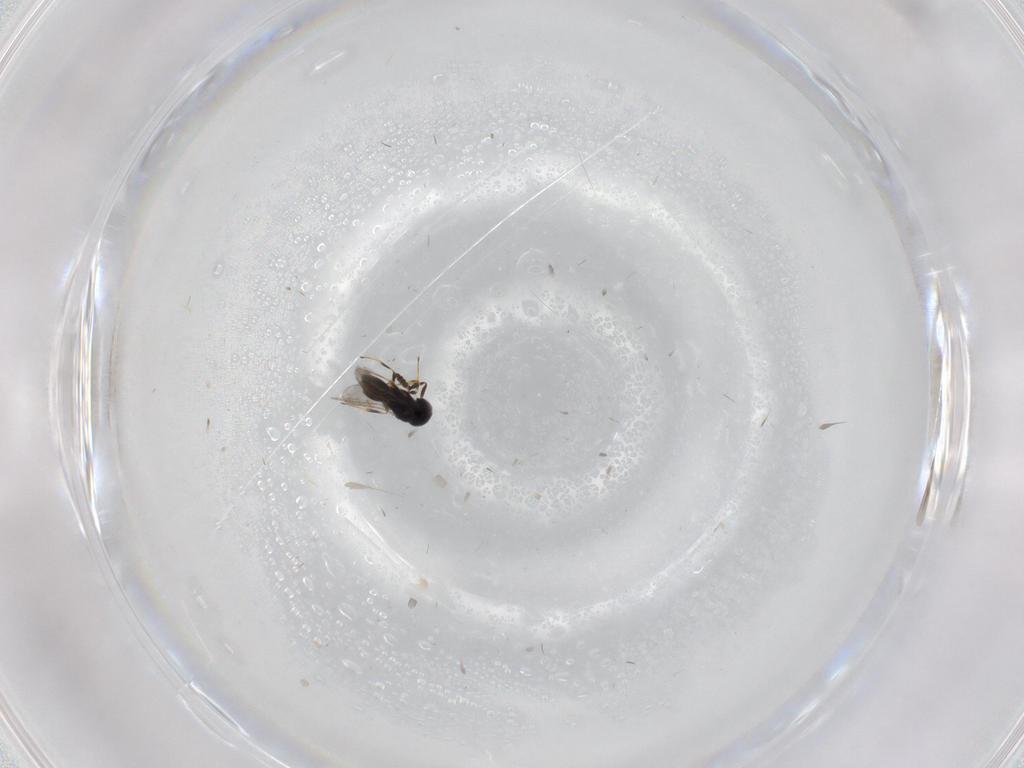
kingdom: Animalia
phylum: Arthropoda
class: Insecta
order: Hymenoptera
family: Scelionidae
